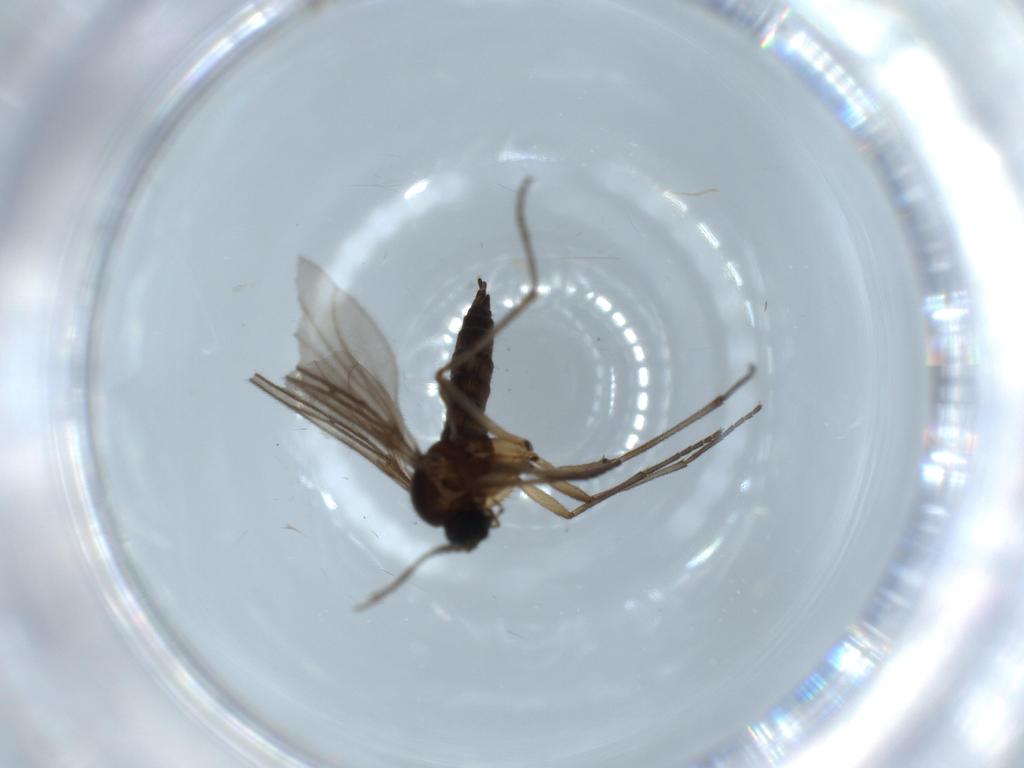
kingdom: Animalia
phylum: Arthropoda
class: Insecta
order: Diptera
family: Sciaridae
